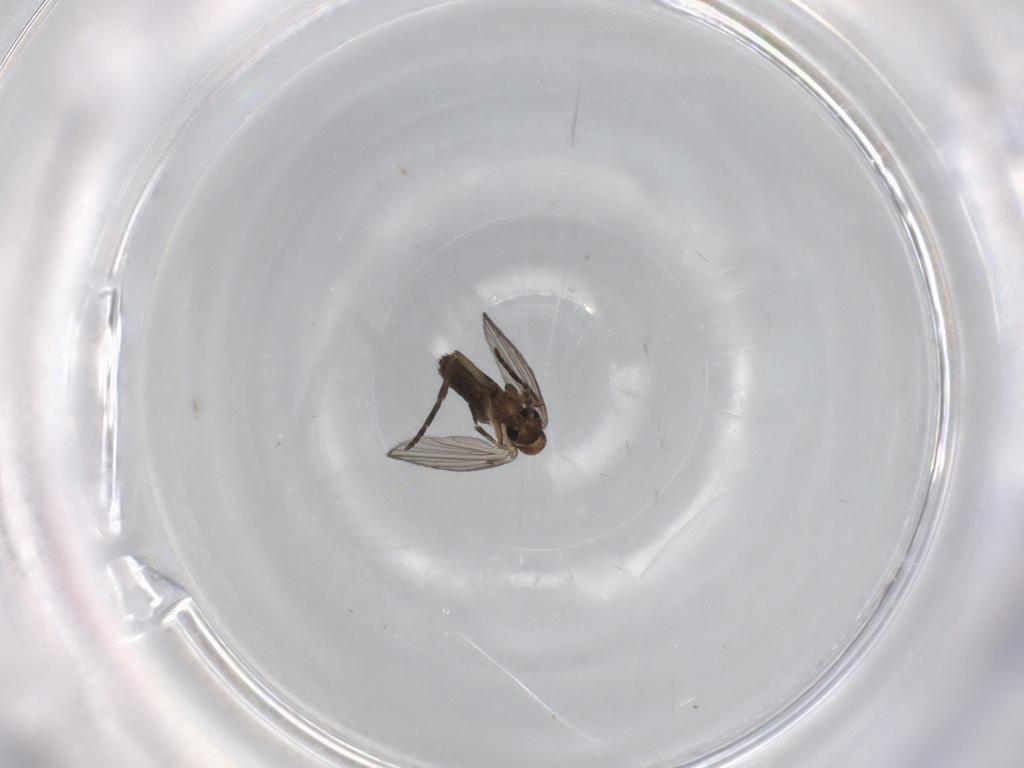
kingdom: Animalia
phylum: Arthropoda
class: Insecta
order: Diptera
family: Psychodidae
